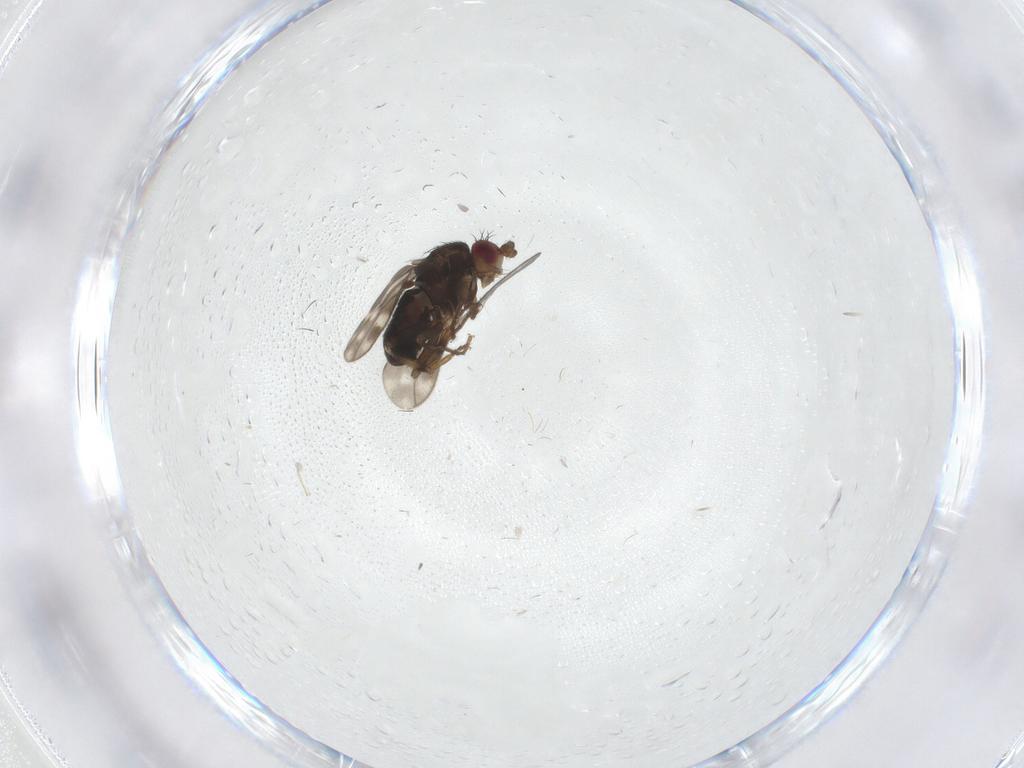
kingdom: Animalia
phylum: Arthropoda
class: Insecta
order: Diptera
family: Sphaeroceridae
